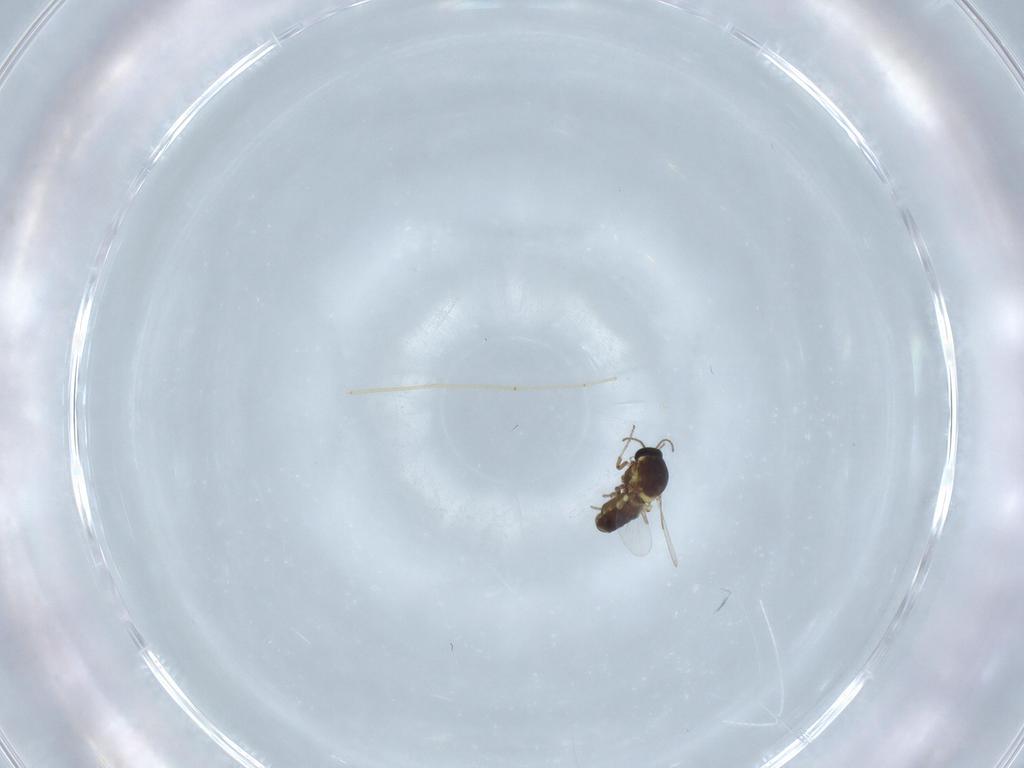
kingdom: Animalia
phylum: Arthropoda
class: Insecta
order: Diptera
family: Ceratopogonidae
